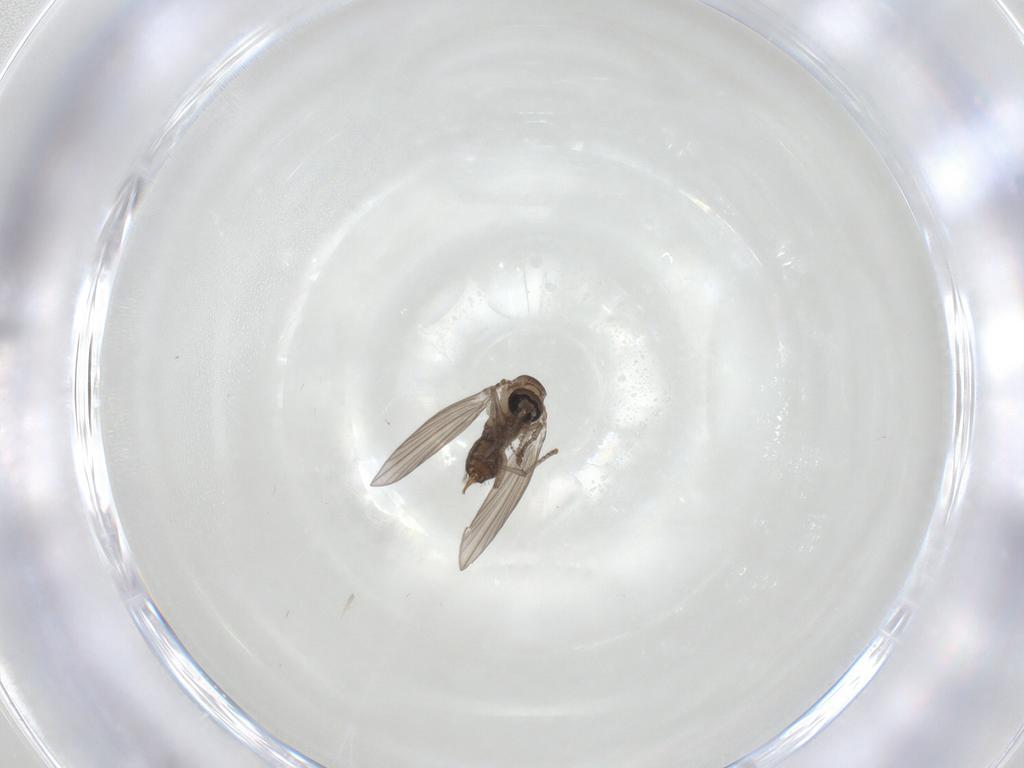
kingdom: Animalia
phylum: Arthropoda
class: Insecta
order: Diptera
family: Psychodidae
